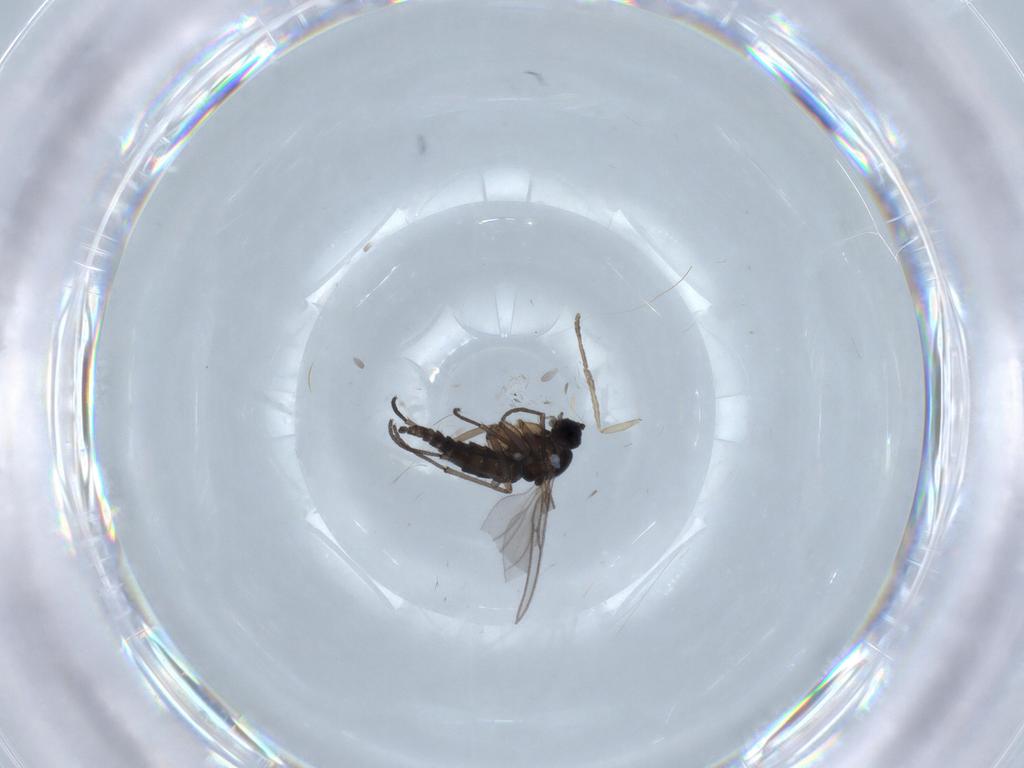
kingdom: Animalia
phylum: Arthropoda
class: Insecta
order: Diptera
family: Sciaridae
